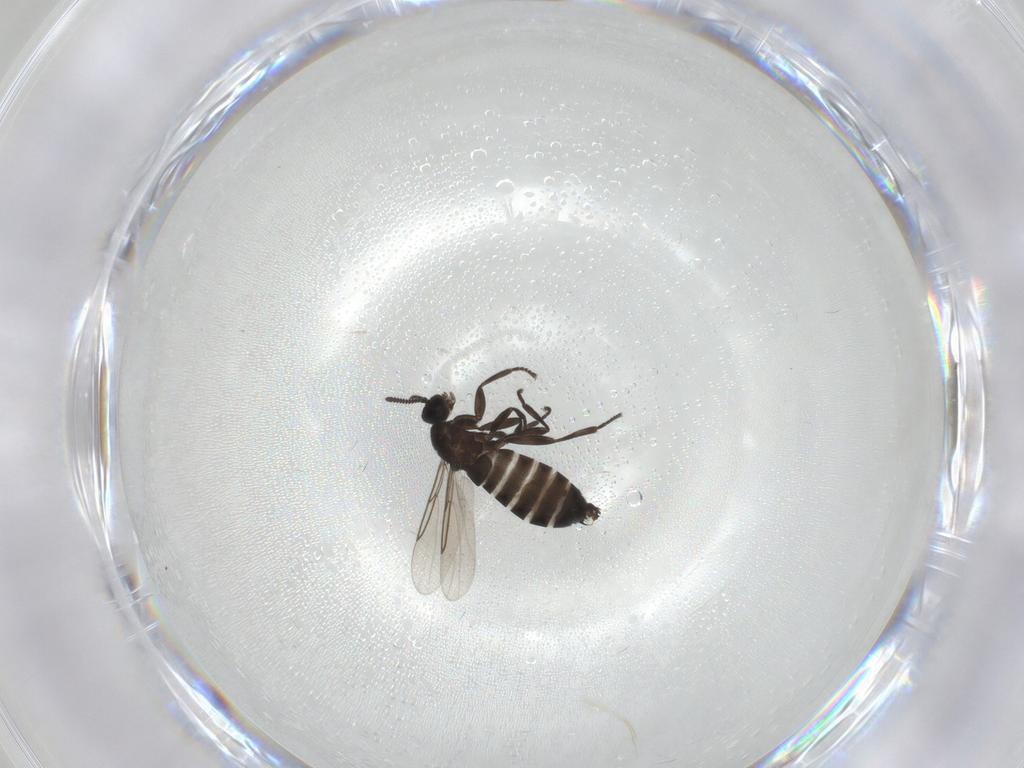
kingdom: Animalia
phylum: Arthropoda
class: Insecta
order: Diptera
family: Scatopsidae
